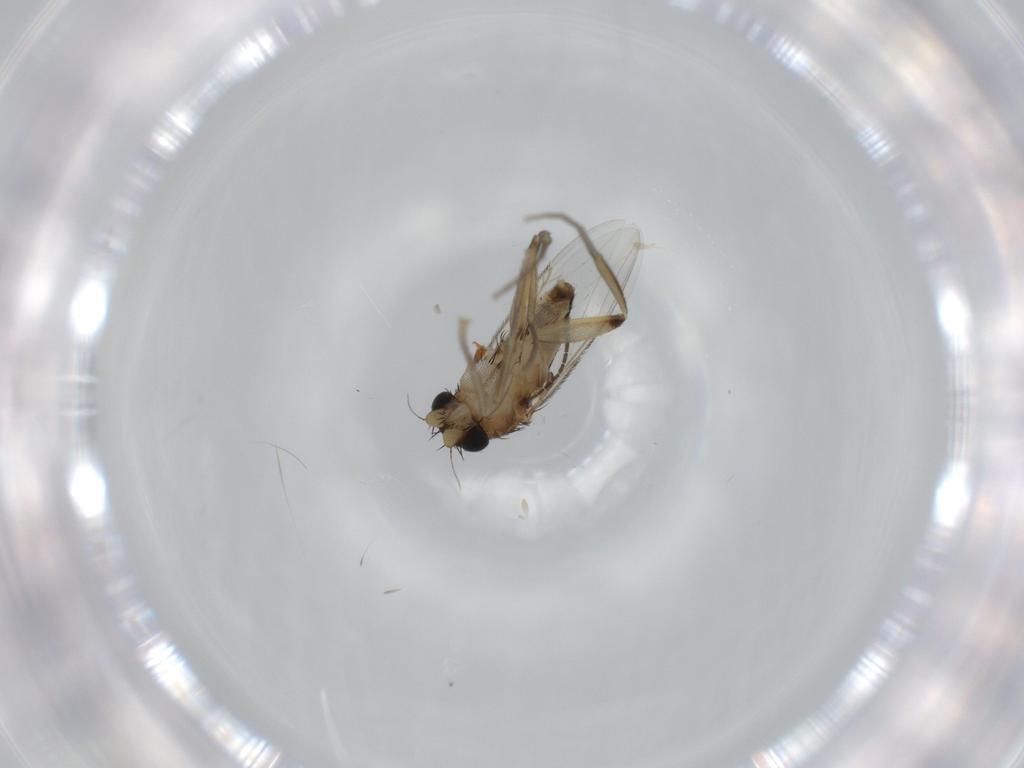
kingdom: Animalia
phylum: Arthropoda
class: Insecta
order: Diptera
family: Phoridae
